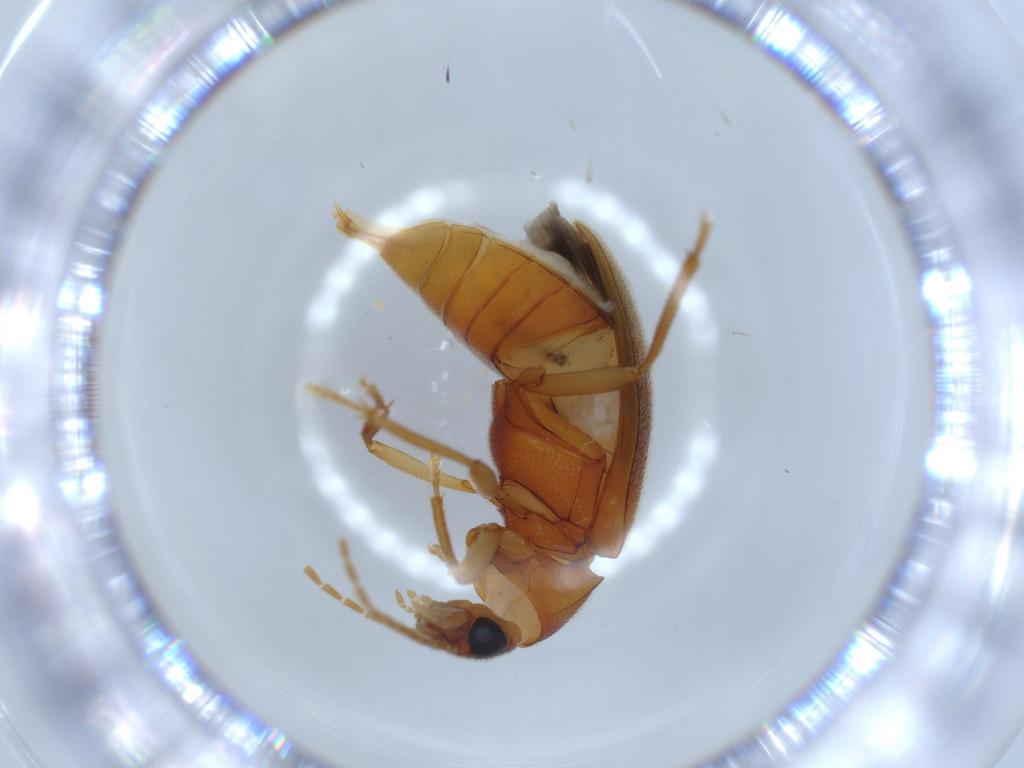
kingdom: Animalia
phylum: Arthropoda
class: Insecta
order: Coleoptera
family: Ptilodactylidae
